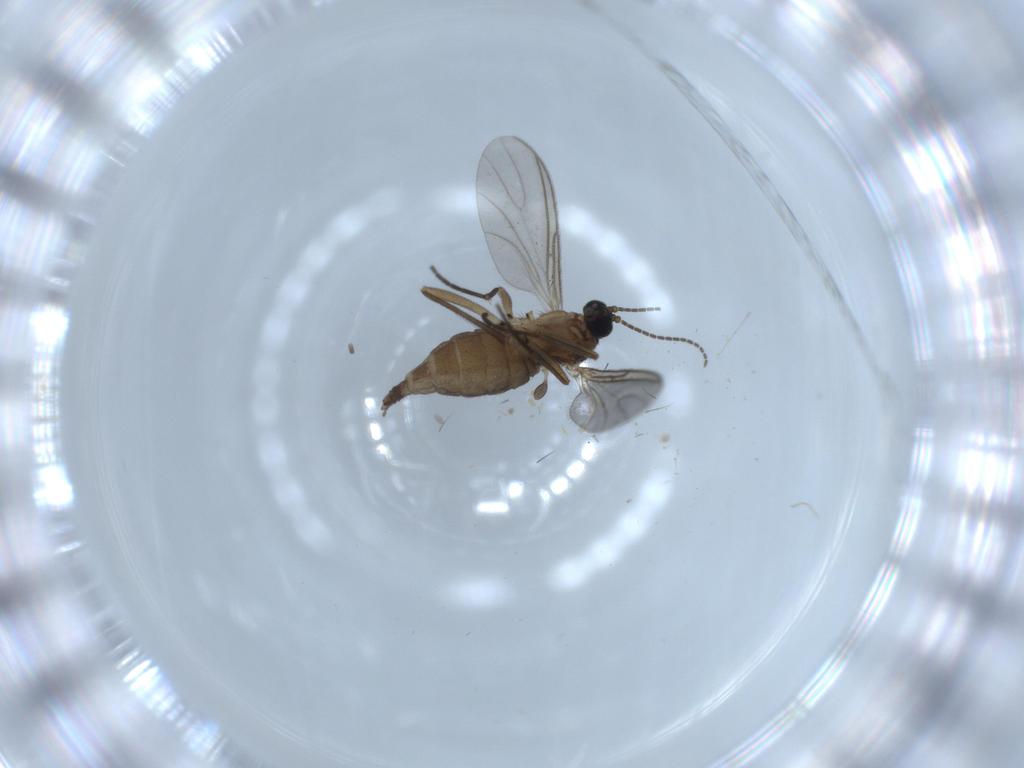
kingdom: Animalia
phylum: Arthropoda
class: Insecta
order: Diptera
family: Sciaridae
